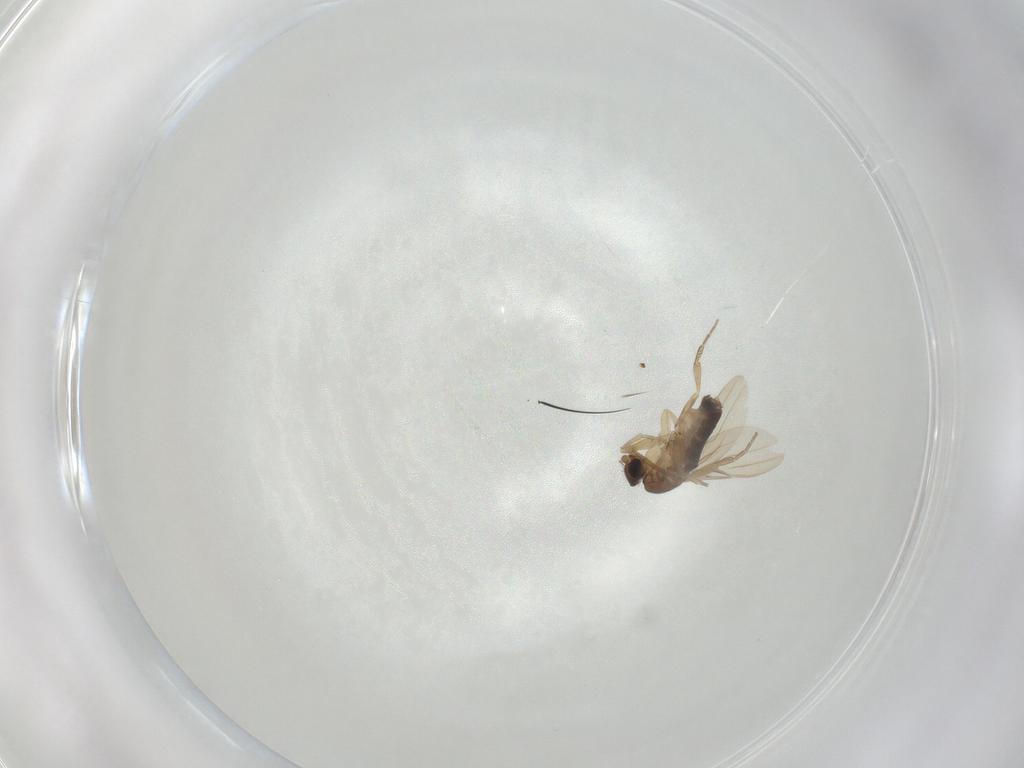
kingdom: Animalia
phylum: Arthropoda
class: Insecta
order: Diptera
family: Phoridae
